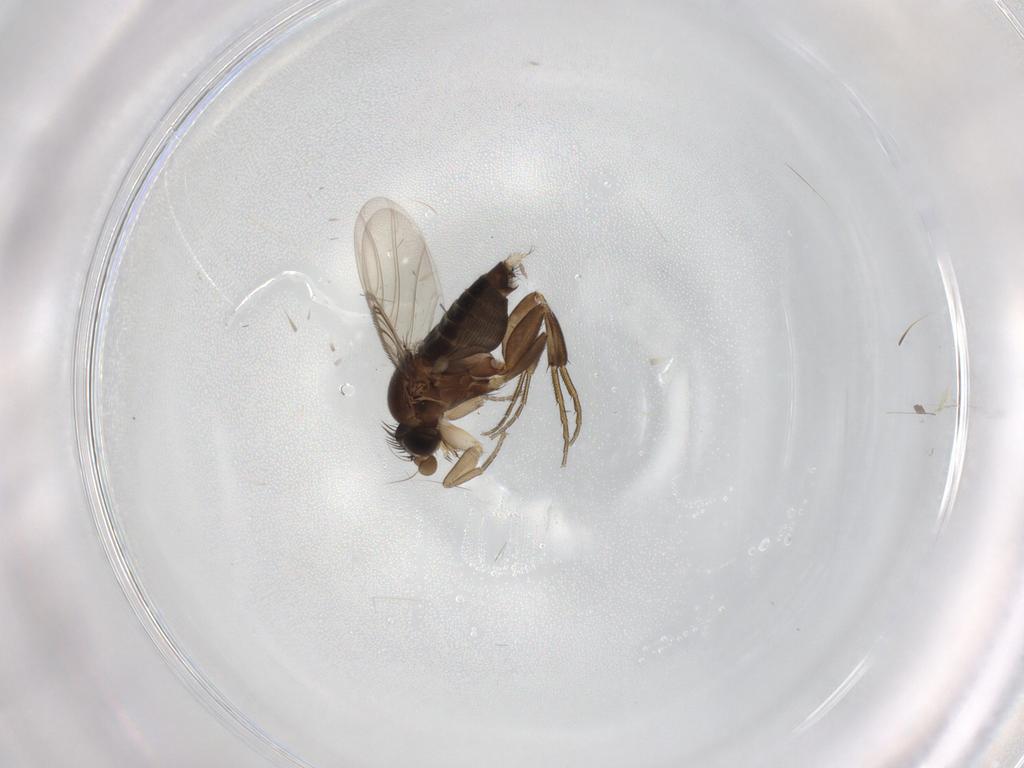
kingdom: Animalia
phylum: Arthropoda
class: Insecta
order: Diptera
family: Phoridae
